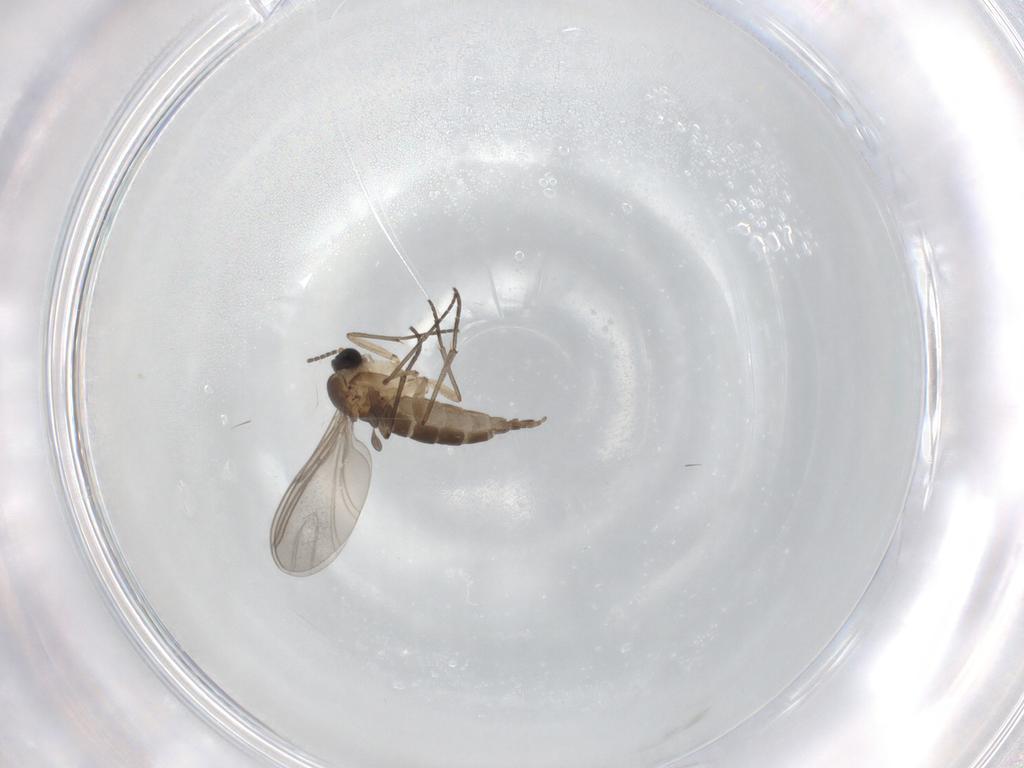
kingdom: Animalia
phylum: Arthropoda
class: Insecta
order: Diptera
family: Sciaridae
